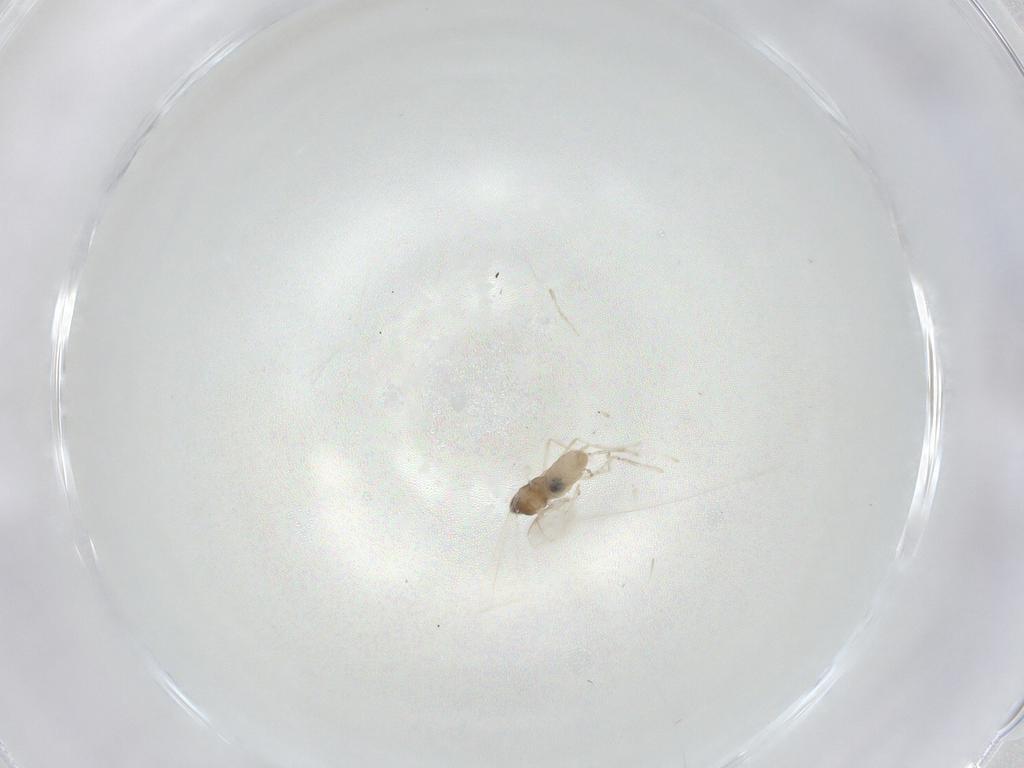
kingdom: Animalia
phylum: Arthropoda
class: Insecta
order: Diptera
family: Cecidomyiidae
